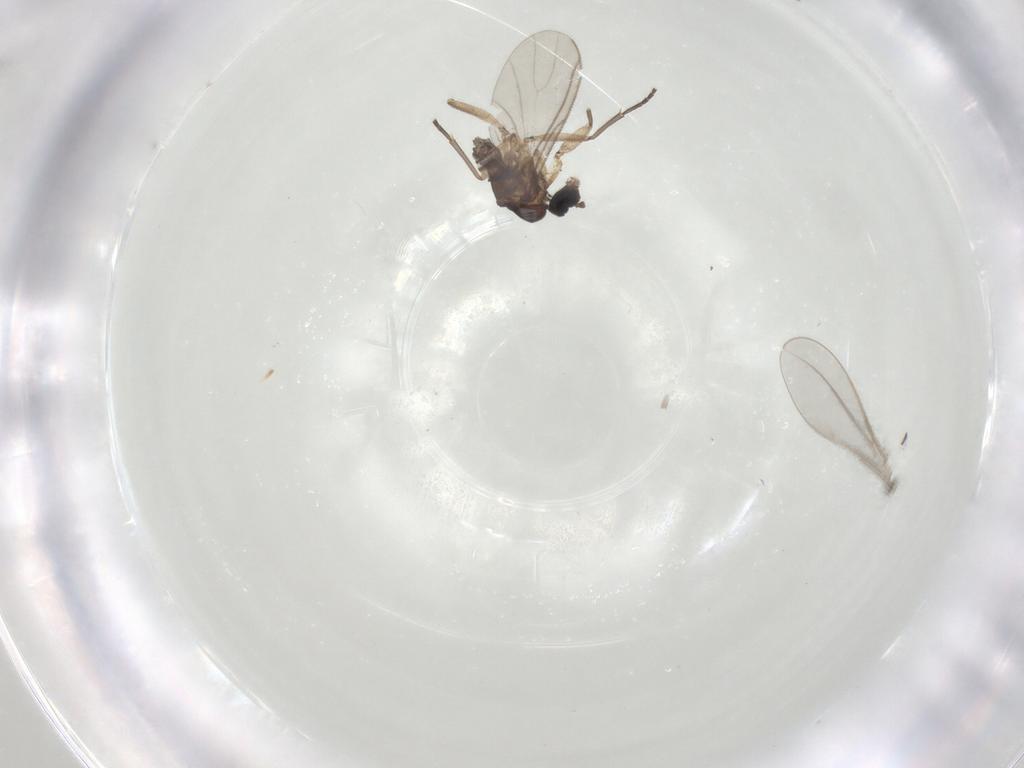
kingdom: Animalia
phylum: Arthropoda
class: Insecta
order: Diptera
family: Sciaridae
